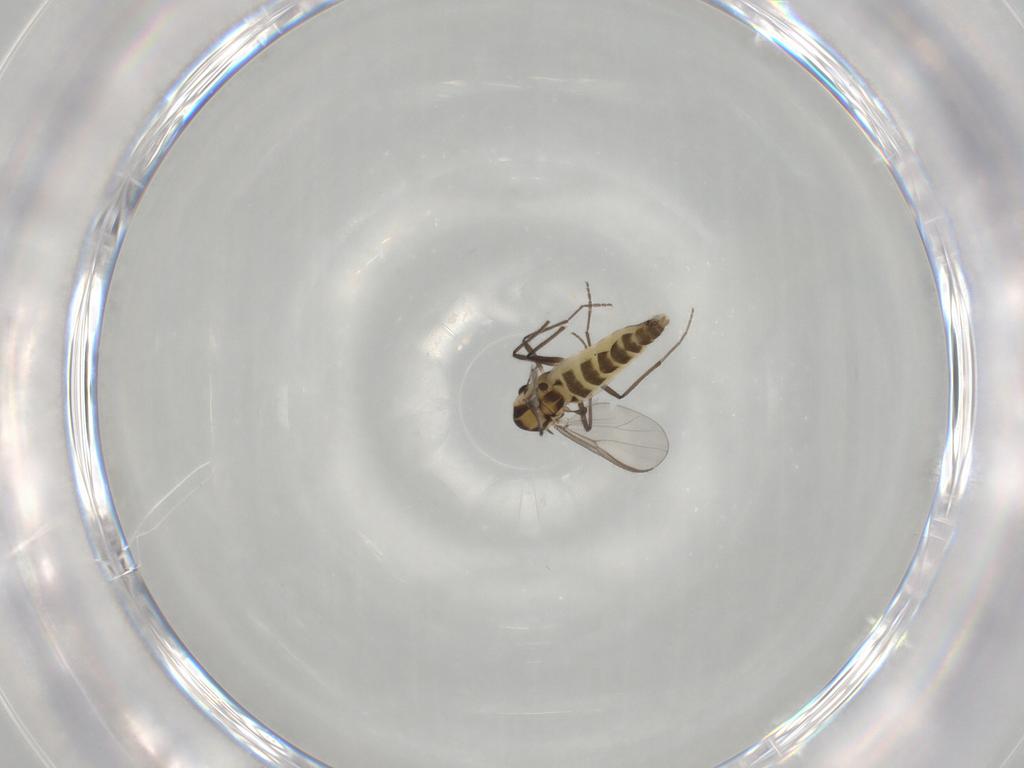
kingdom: Animalia
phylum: Arthropoda
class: Insecta
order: Diptera
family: Chironomidae
